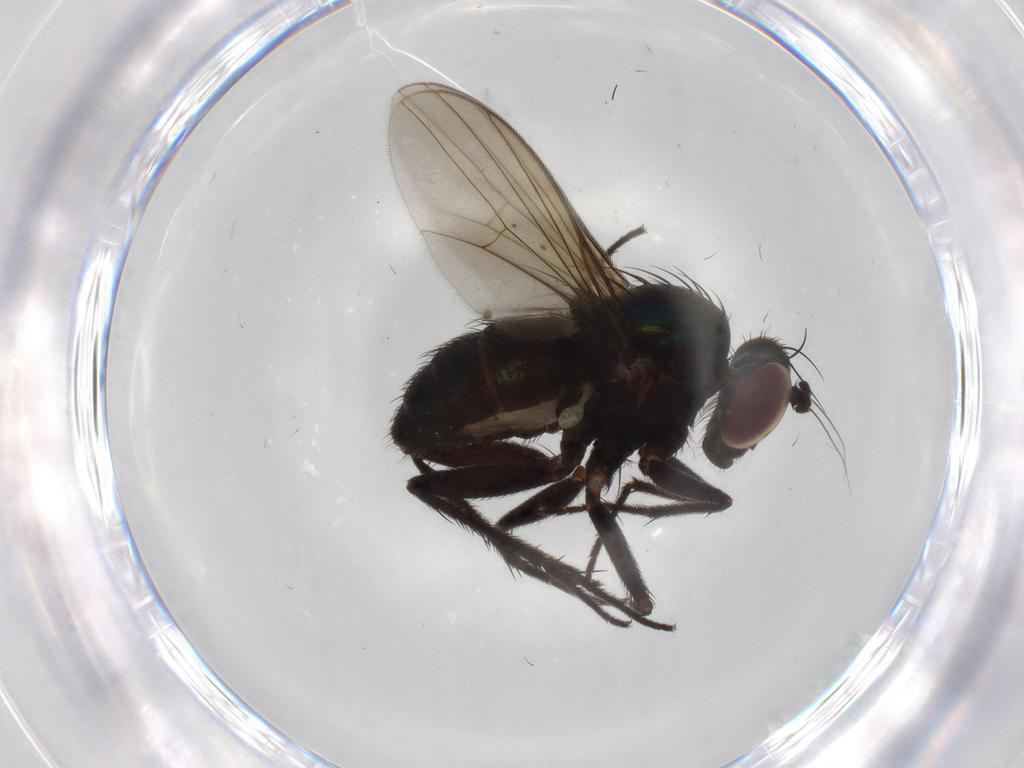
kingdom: Animalia
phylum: Arthropoda
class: Insecta
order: Diptera
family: Dolichopodidae
